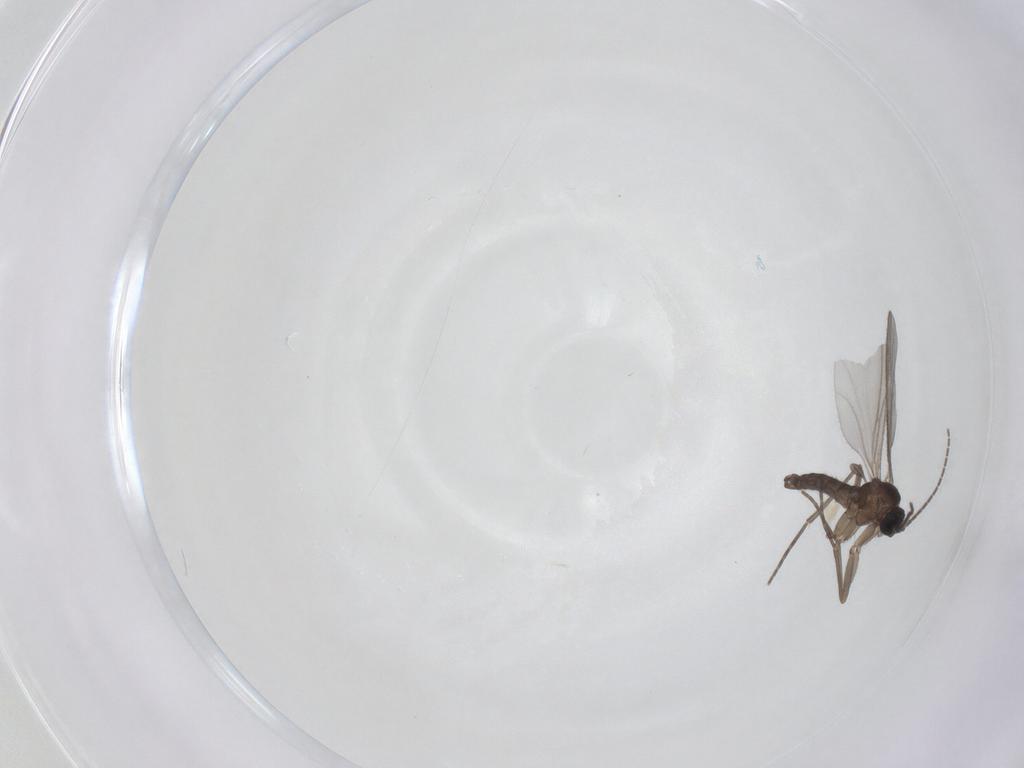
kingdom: Animalia
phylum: Arthropoda
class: Insecta
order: Diptera
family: Sciaridae
